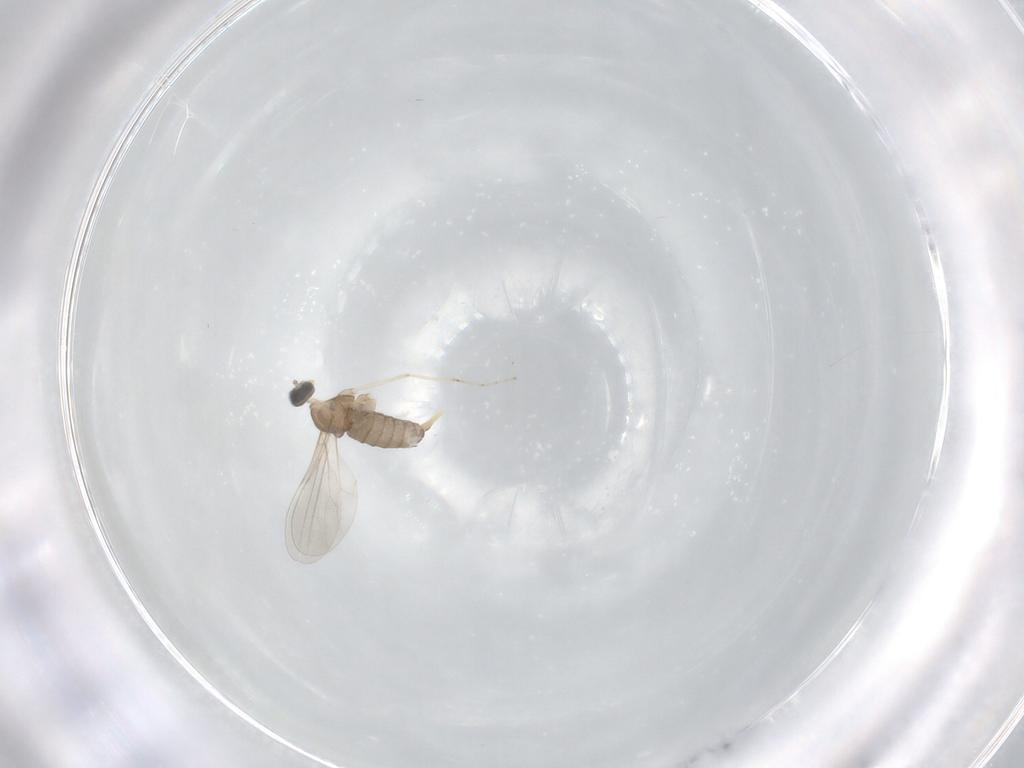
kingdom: Animalia
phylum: Arthropoda
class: Insecta
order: Diptera
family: Cecidomyiidae
